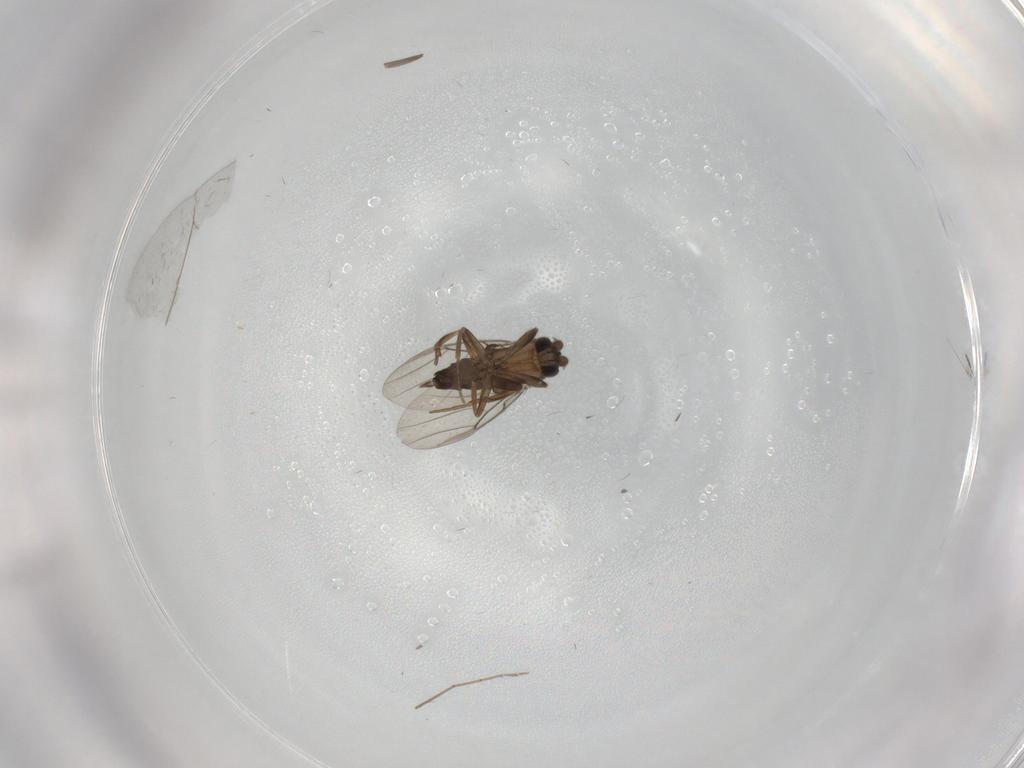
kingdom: Animalia
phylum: Arthropoda
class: Insecta
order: Diptera
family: Phoridae
